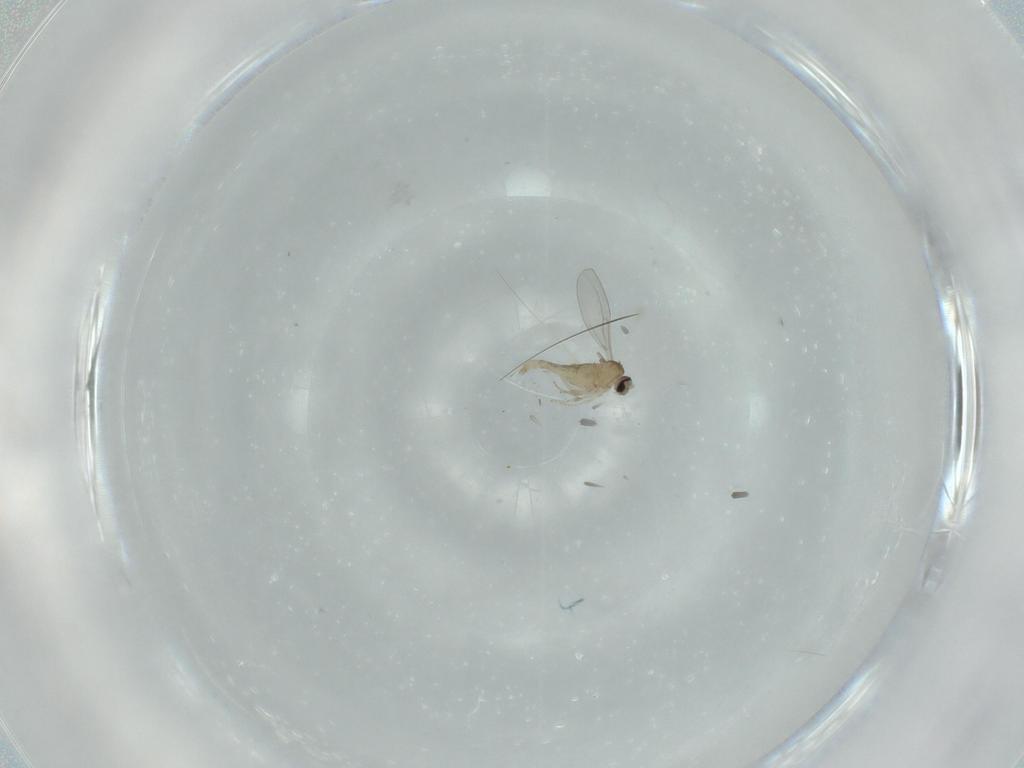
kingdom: Animalia
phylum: Arthropoda
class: Insecta
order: Diptera
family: Cecidomyiidae
